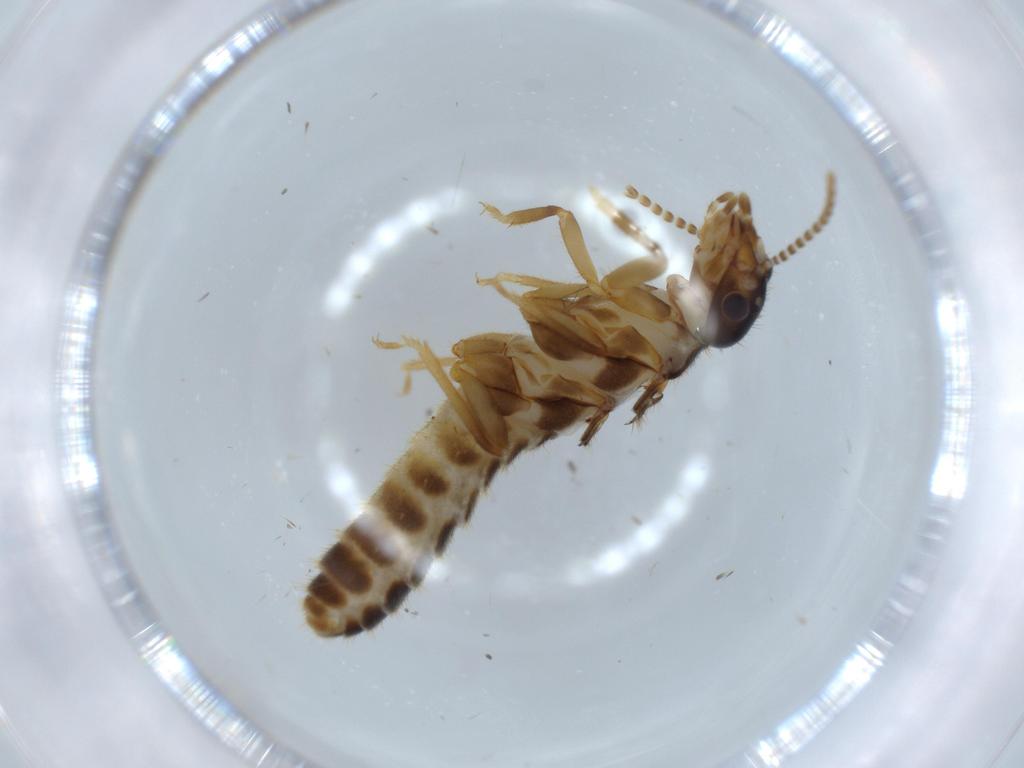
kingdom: Animalia
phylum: Arthropoda
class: Insecta
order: Blattodea
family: Termitidae
